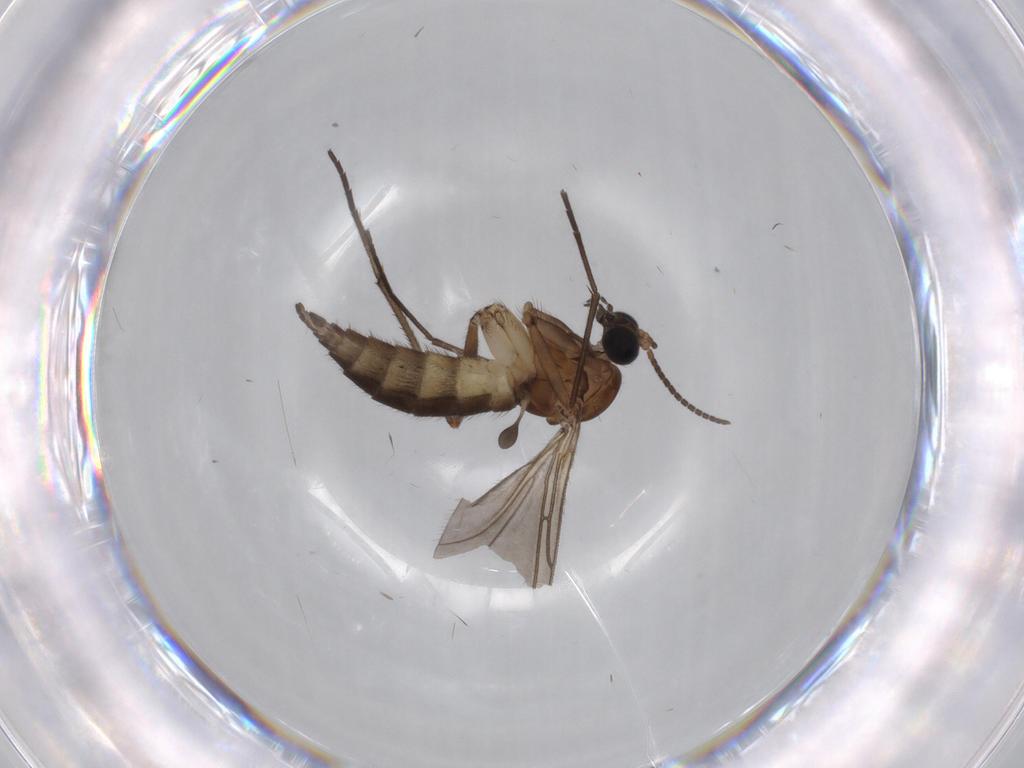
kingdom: Animalia
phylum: Arthropoda
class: Insecta
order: Diptera
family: Sciaridae
